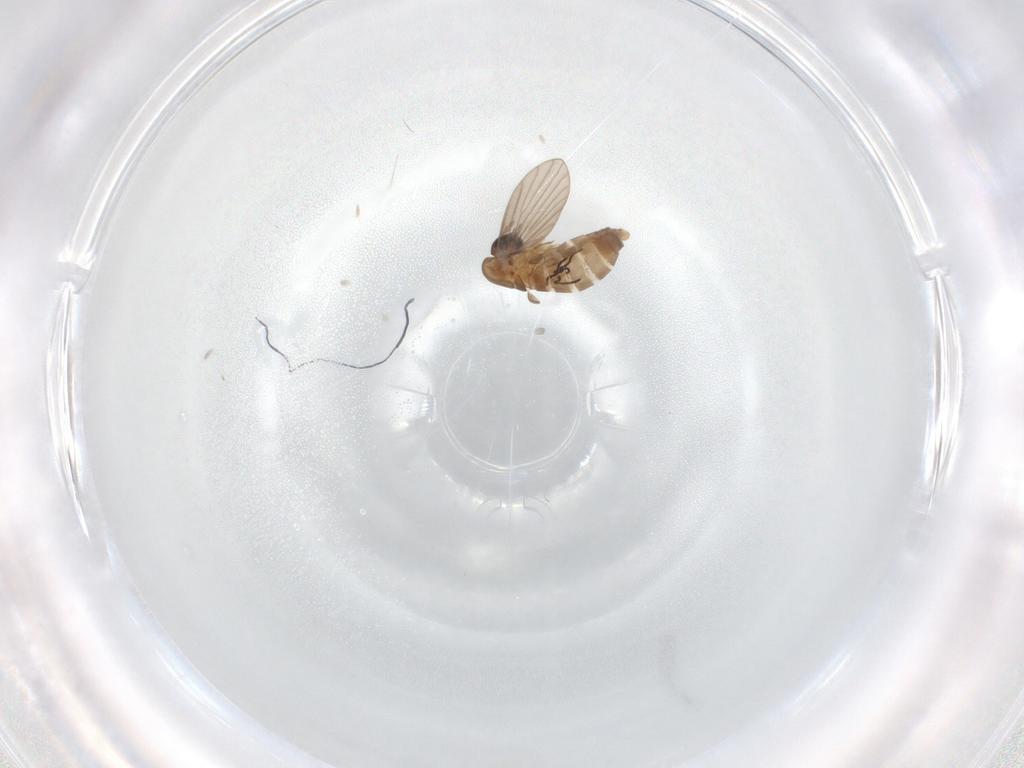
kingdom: Animalia
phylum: Arthropoda
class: Insecta
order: Diptera
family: Psychodidae
